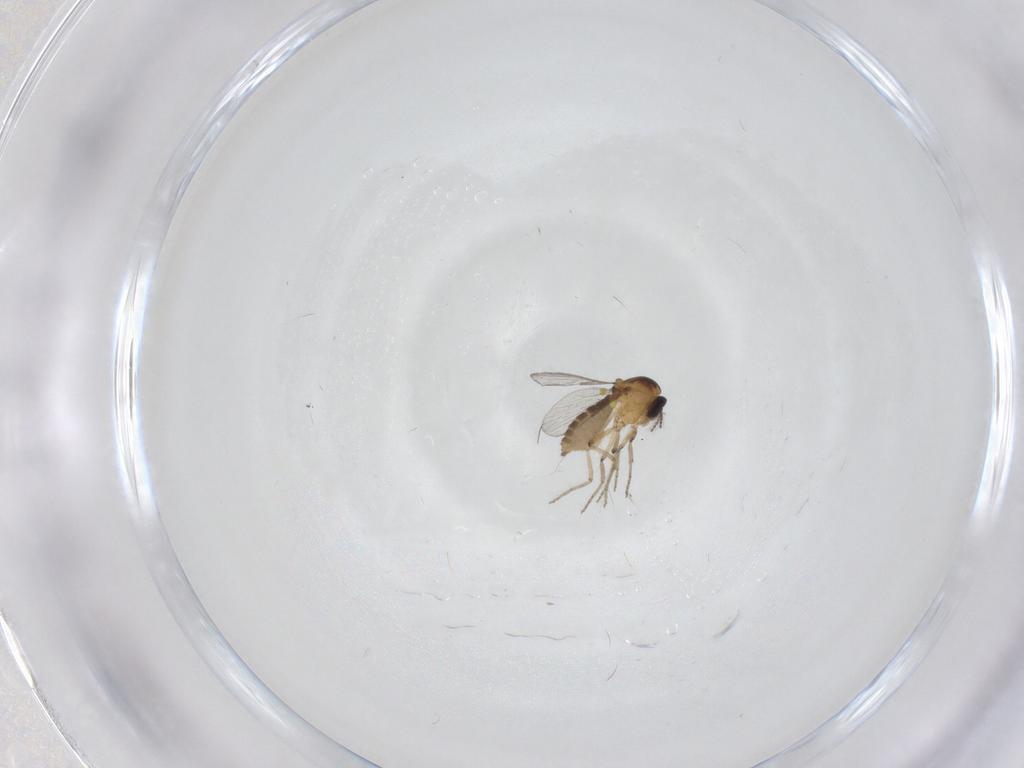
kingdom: Animalia
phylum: Arthropoda
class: Insecta
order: Diptera
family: Ceratopogonidae
